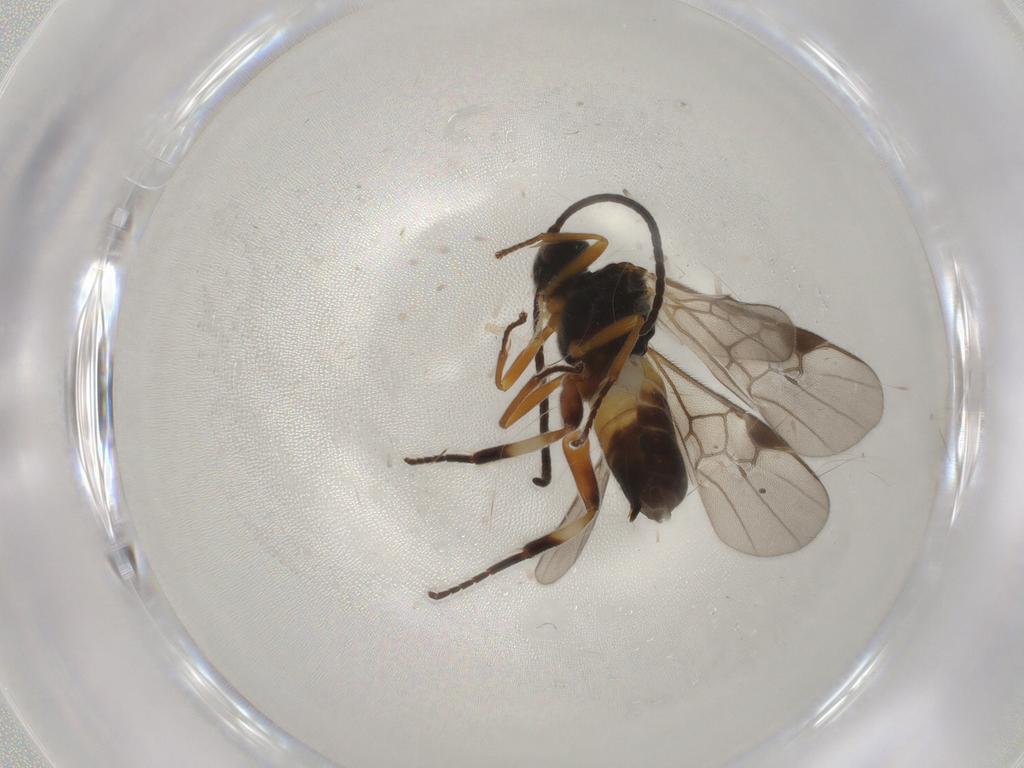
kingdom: Animalia
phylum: Arthropoda
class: Insecta
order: Hymenoptera
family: Braconidae
